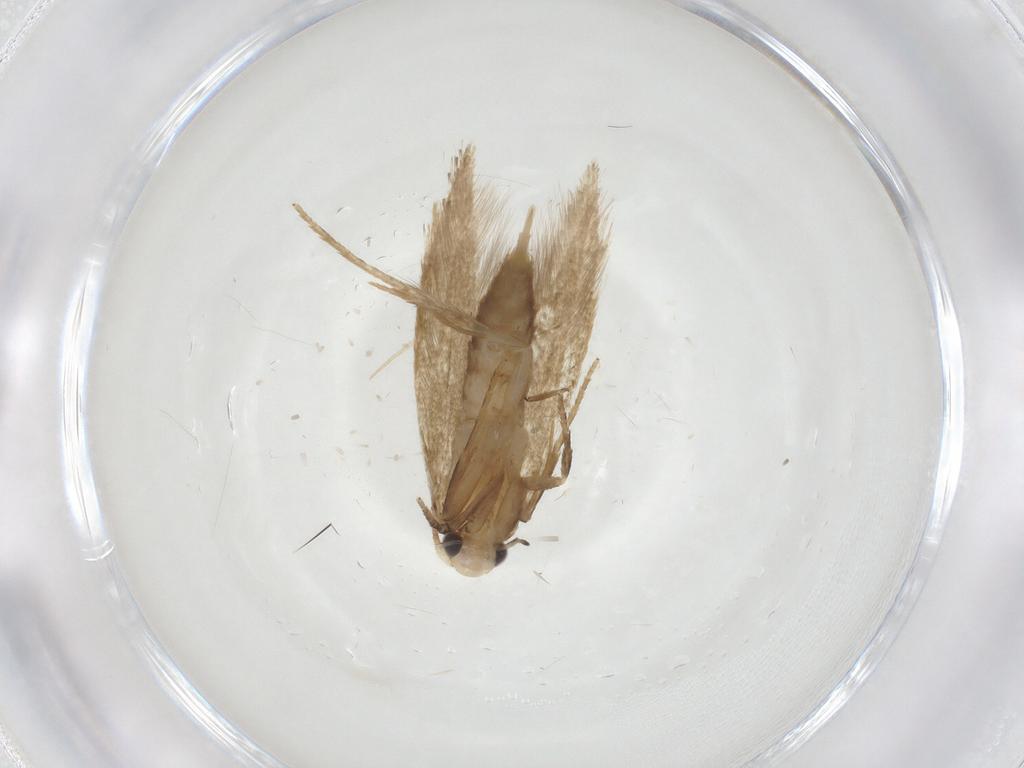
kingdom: Animalia
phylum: Arthropoda
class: Insecta
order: Lepidoptera
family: Tineidae
